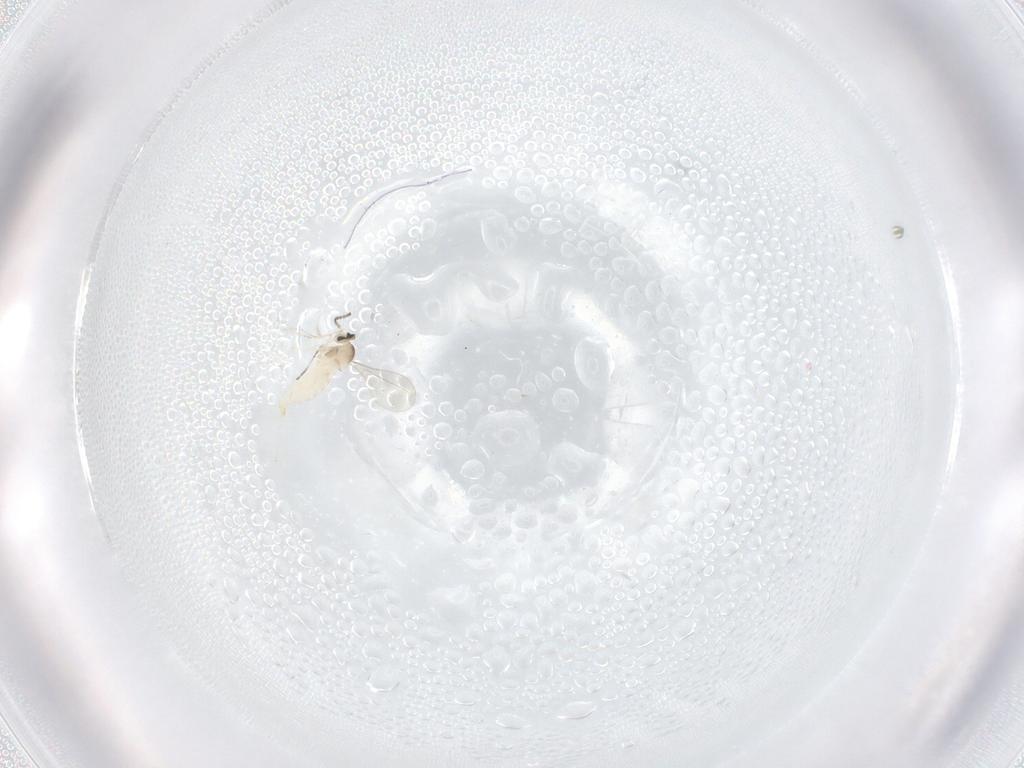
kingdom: Animalia
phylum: Arthropoda
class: Insecta
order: Diptera
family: Cecidomyiidae
